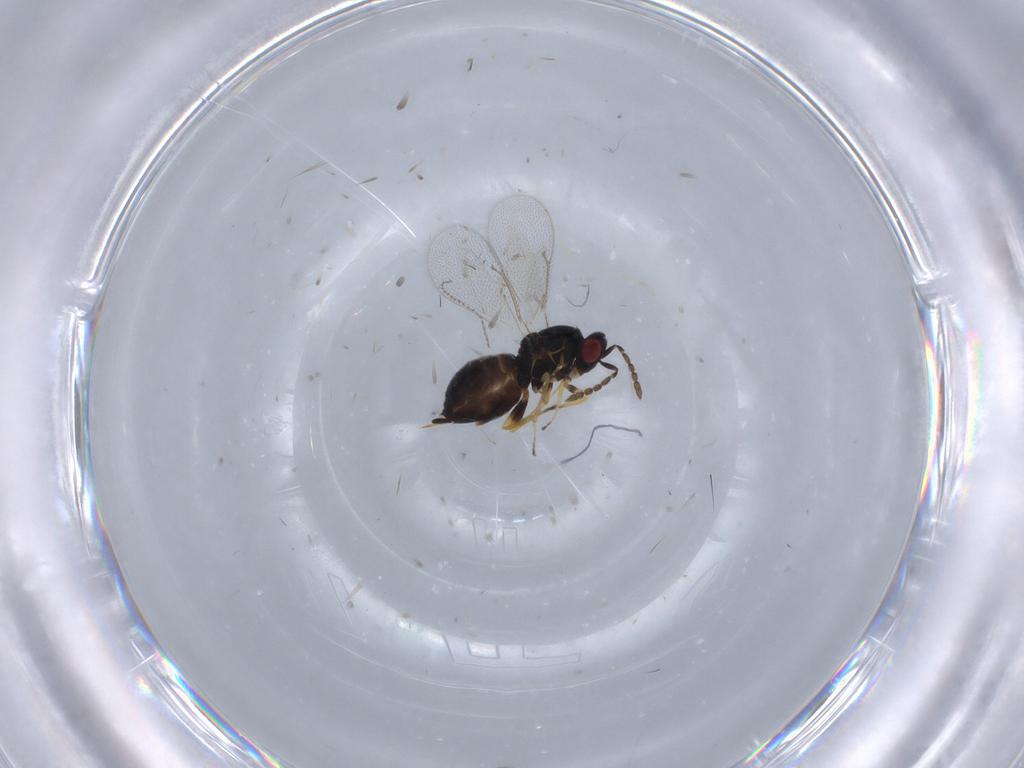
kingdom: Animalia
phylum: Arthropoda
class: Insecta
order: Hymenoptera
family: Eulophidae
